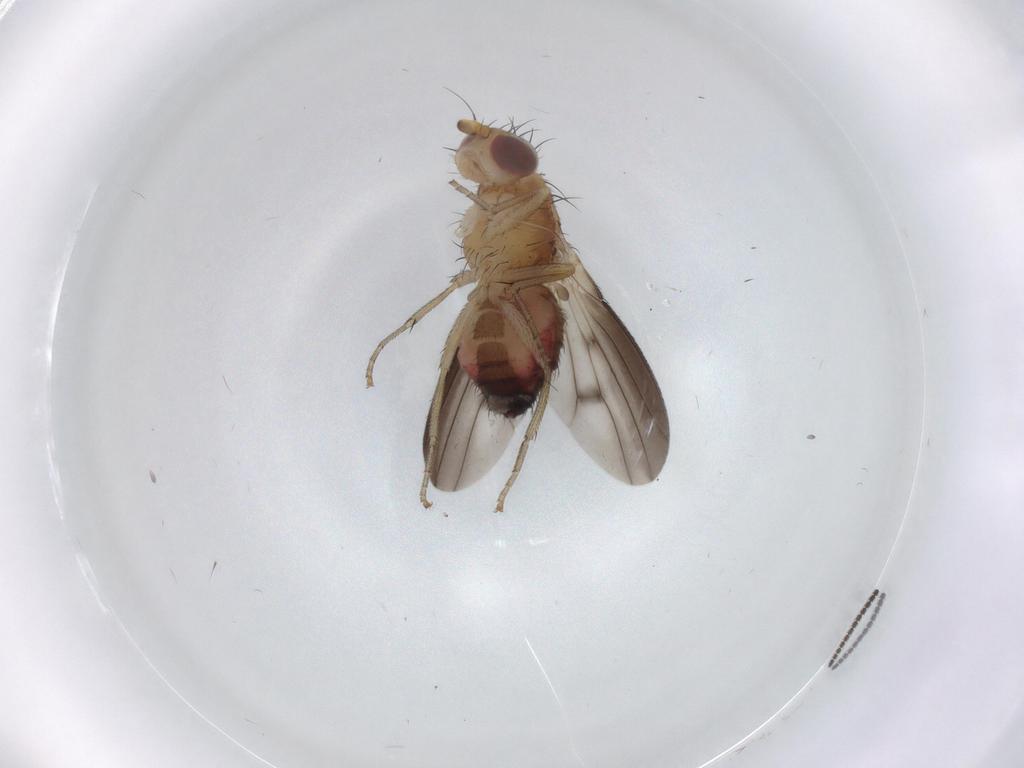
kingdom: Animalia
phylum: Arthropoda
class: Insecta
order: Diptera
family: Heleomyzidae
